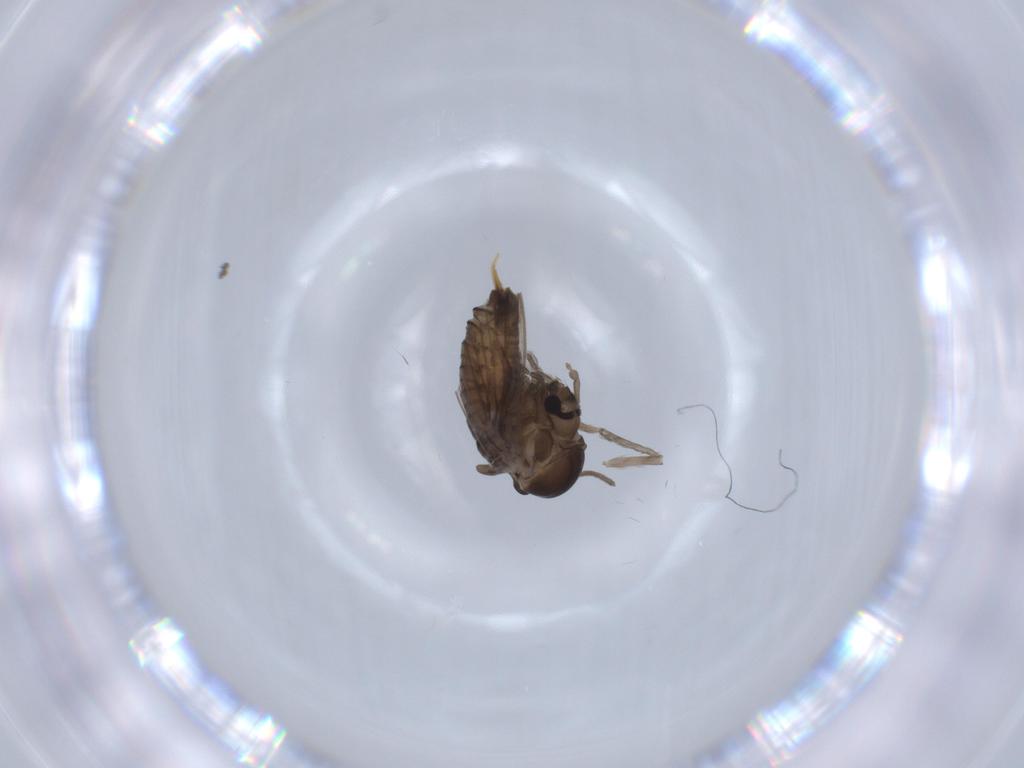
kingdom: Animalia
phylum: Arthropoda
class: Insecta
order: Diptera
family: Psychodidae
